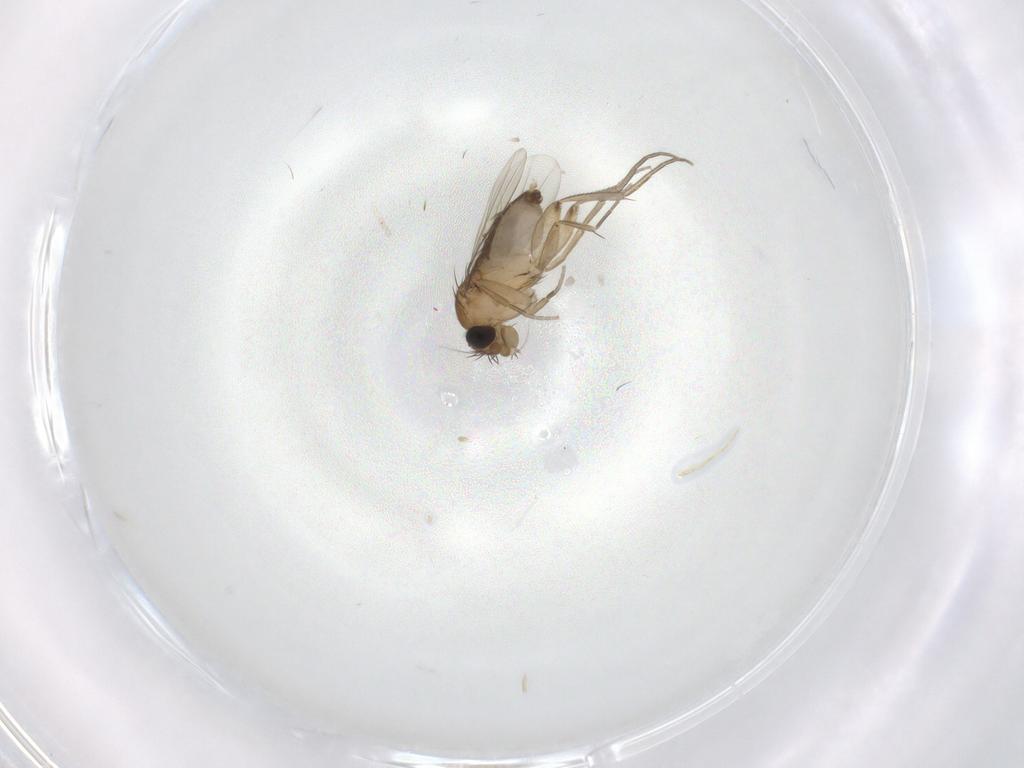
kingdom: Animalia
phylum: Arthropoda
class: Insecta
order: Diptera
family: Phoridae
